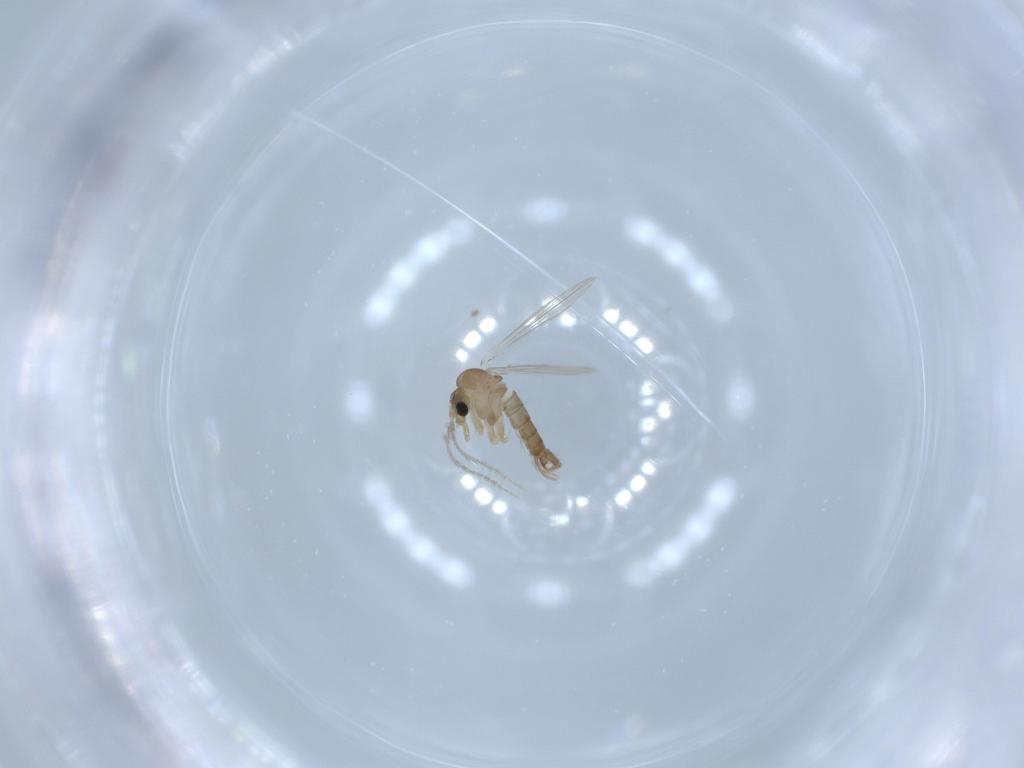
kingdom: Animalia
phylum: Arthropoda
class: Insecta
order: Diptera
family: Psychodidae
